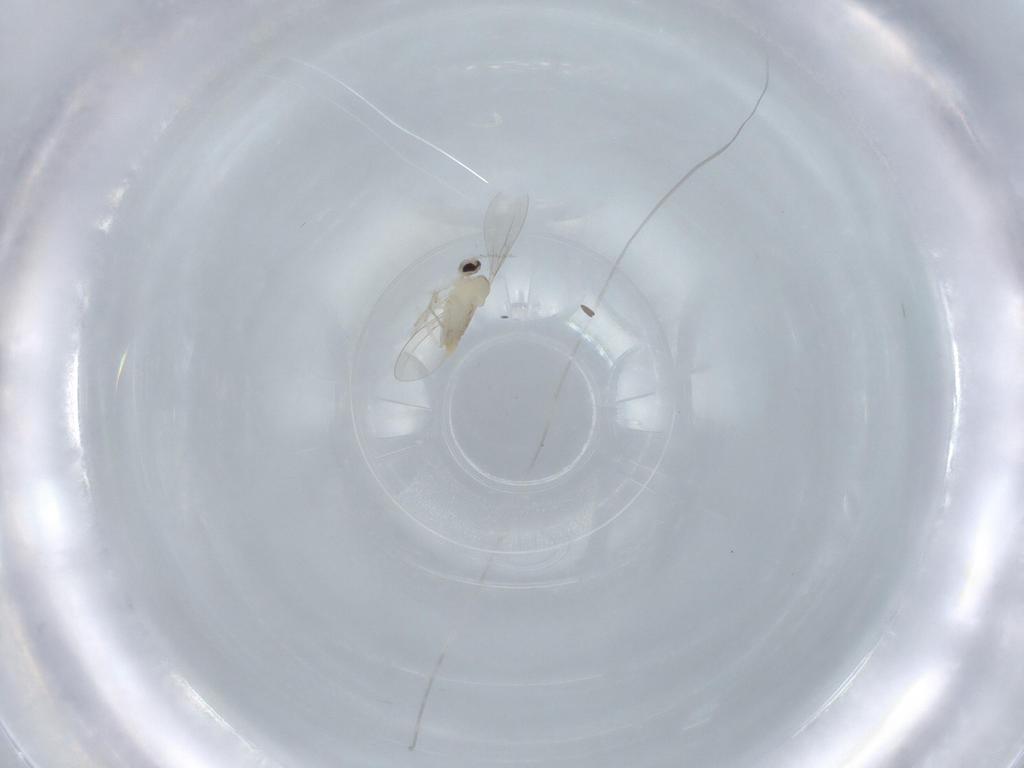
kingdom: Animalia
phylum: Arthropoda
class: Insecta
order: Diptera
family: Cecidomyiidae
